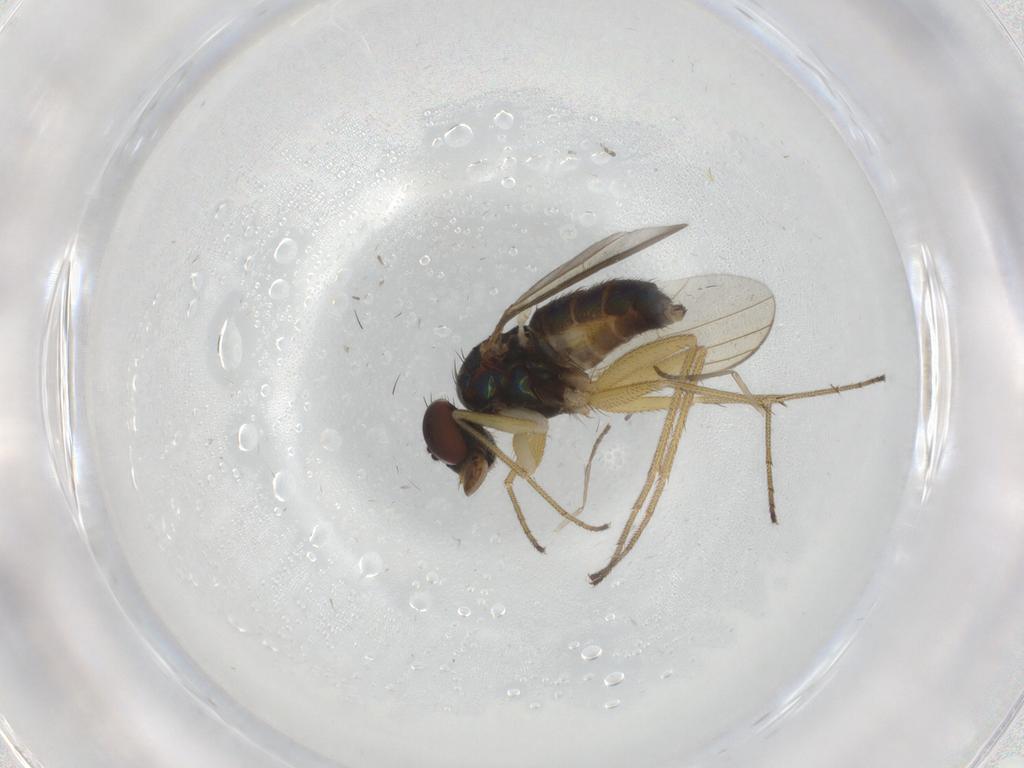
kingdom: Animalia
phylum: Arthropoda
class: Insecta
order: Diptera
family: Dolichopodidae
